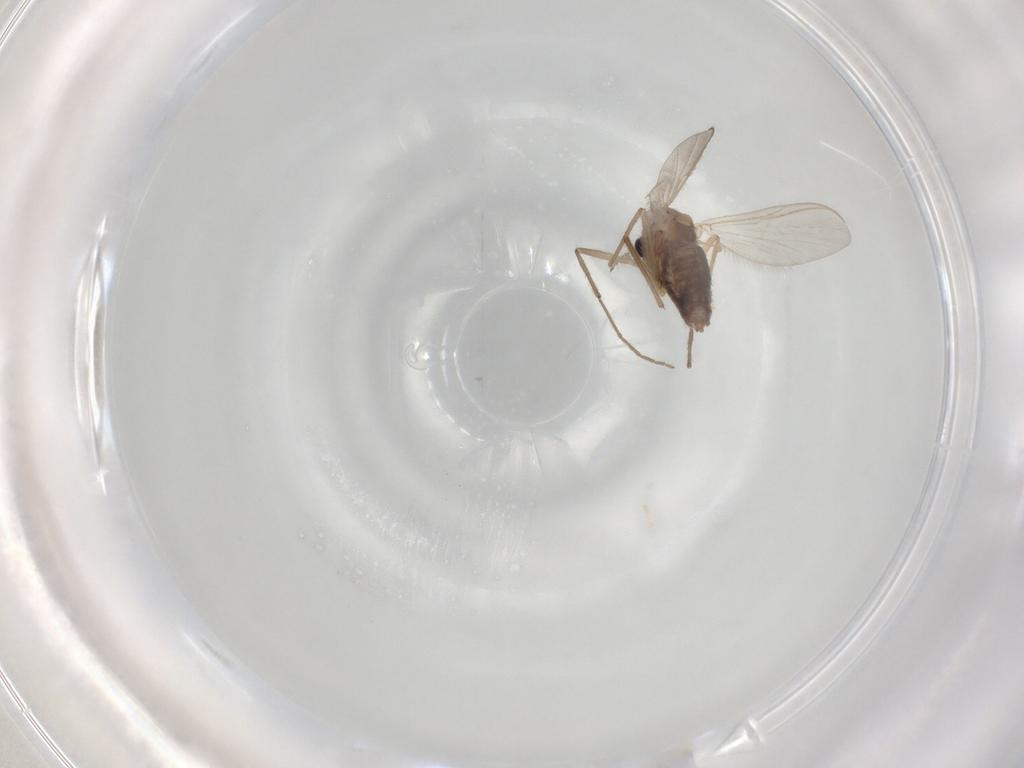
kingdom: Animalia
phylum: Arthropoda
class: Insecta
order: Diptera
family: Chironomidae
